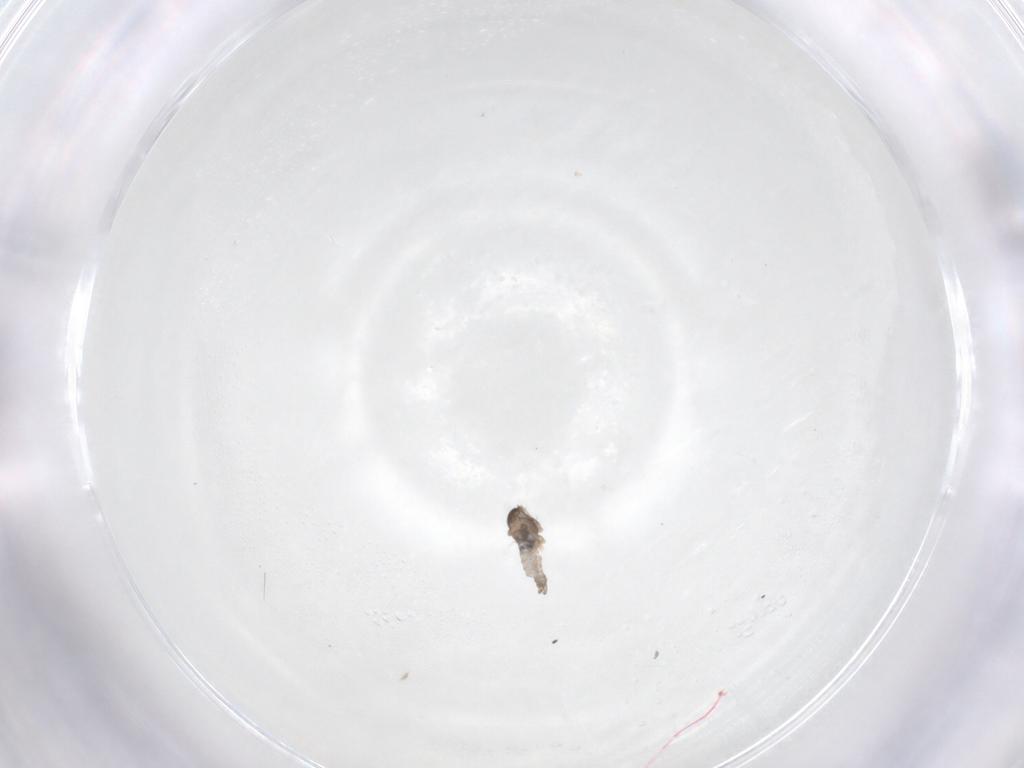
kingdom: Animalia
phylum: Arthropoda
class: Insecta
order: Diptera
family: Cecidomyiidae
